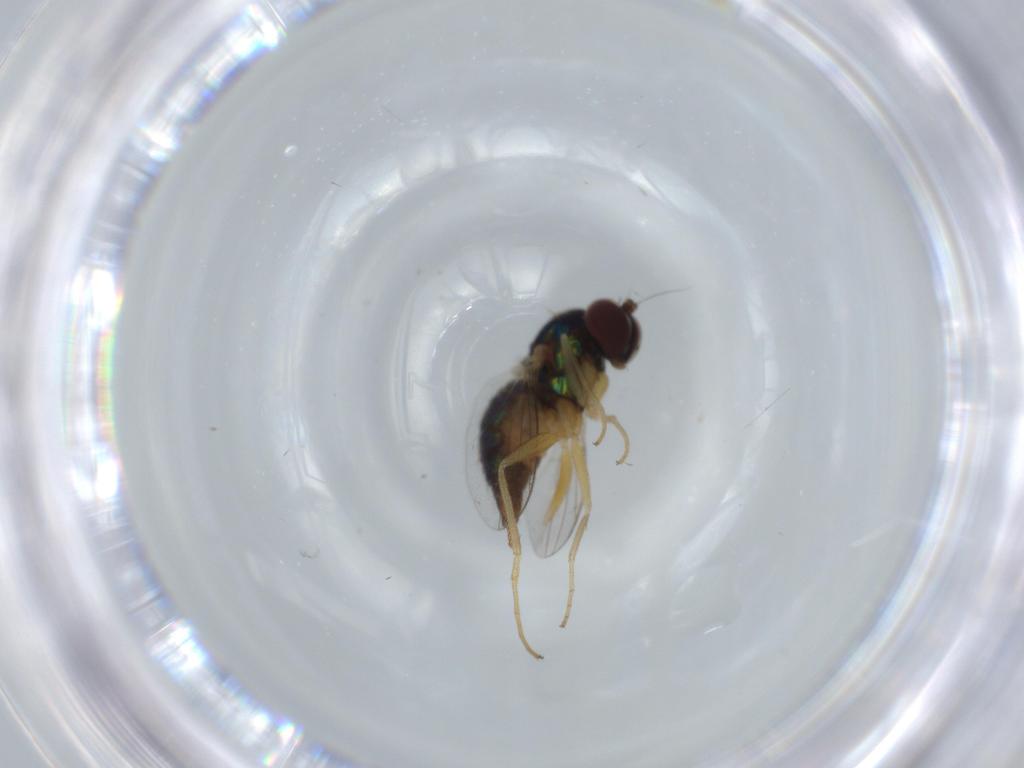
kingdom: Animalia
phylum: Arthropoda
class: Insecta
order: Diptera
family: Dolichopodidae
